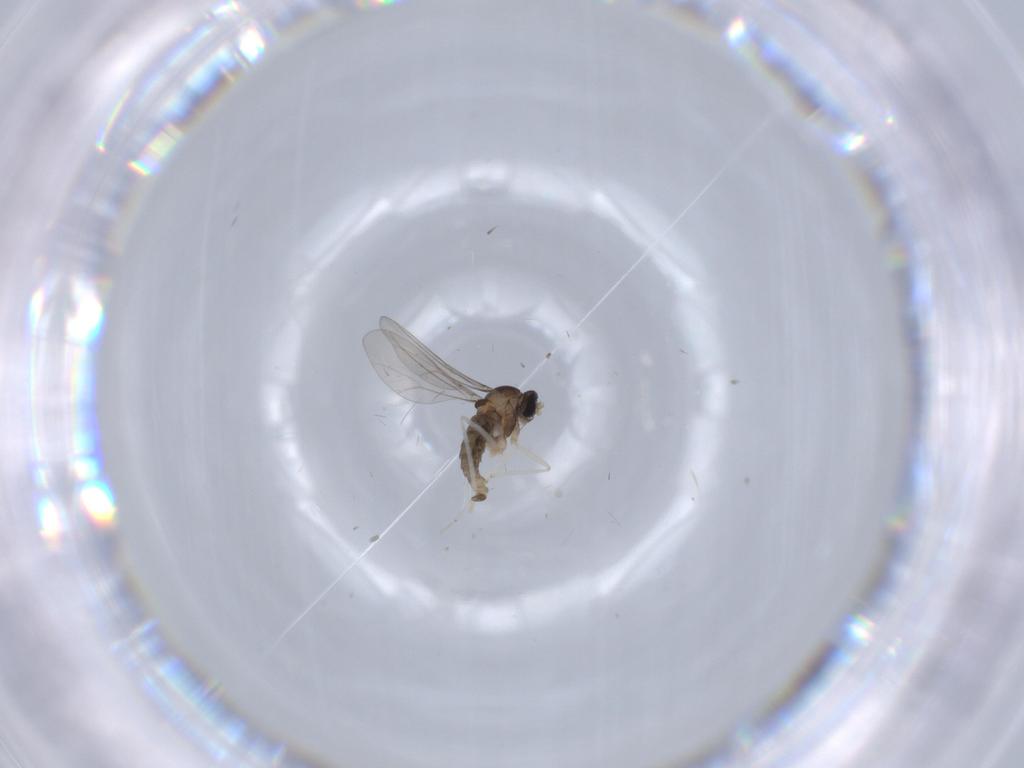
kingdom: Animalia
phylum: Arthropoda
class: Insecta
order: Diptera
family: Cecidomyiidae
